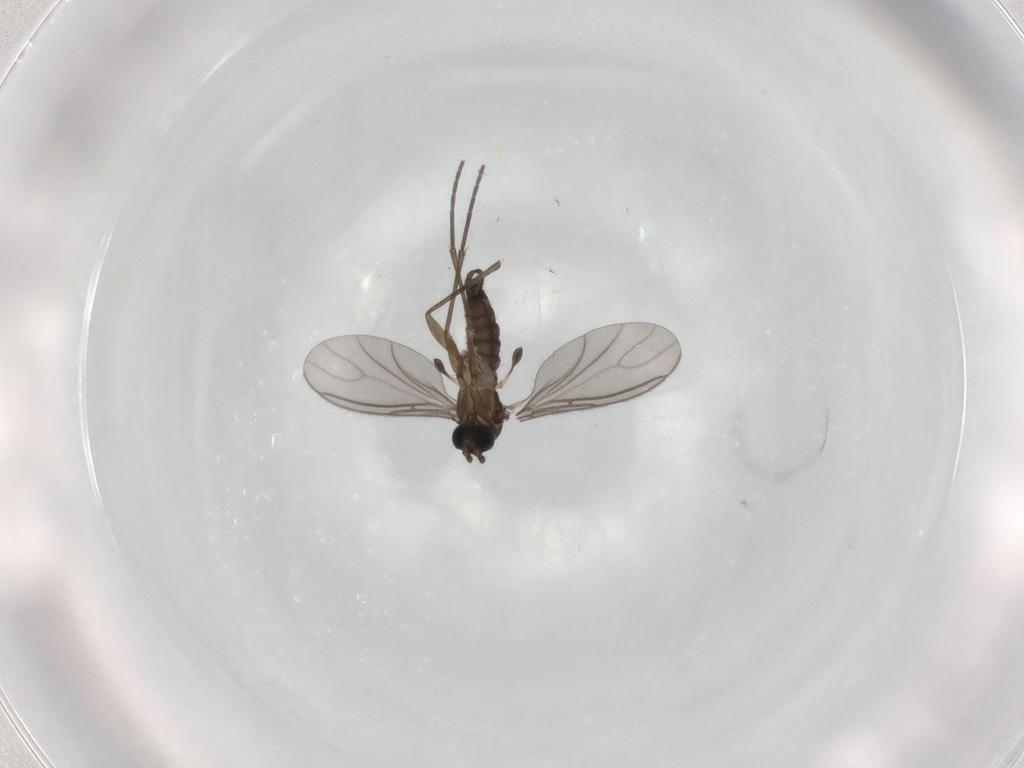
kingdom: Animalia
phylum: Arthropoda
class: Insecta
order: Diptera
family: Sciaridae
